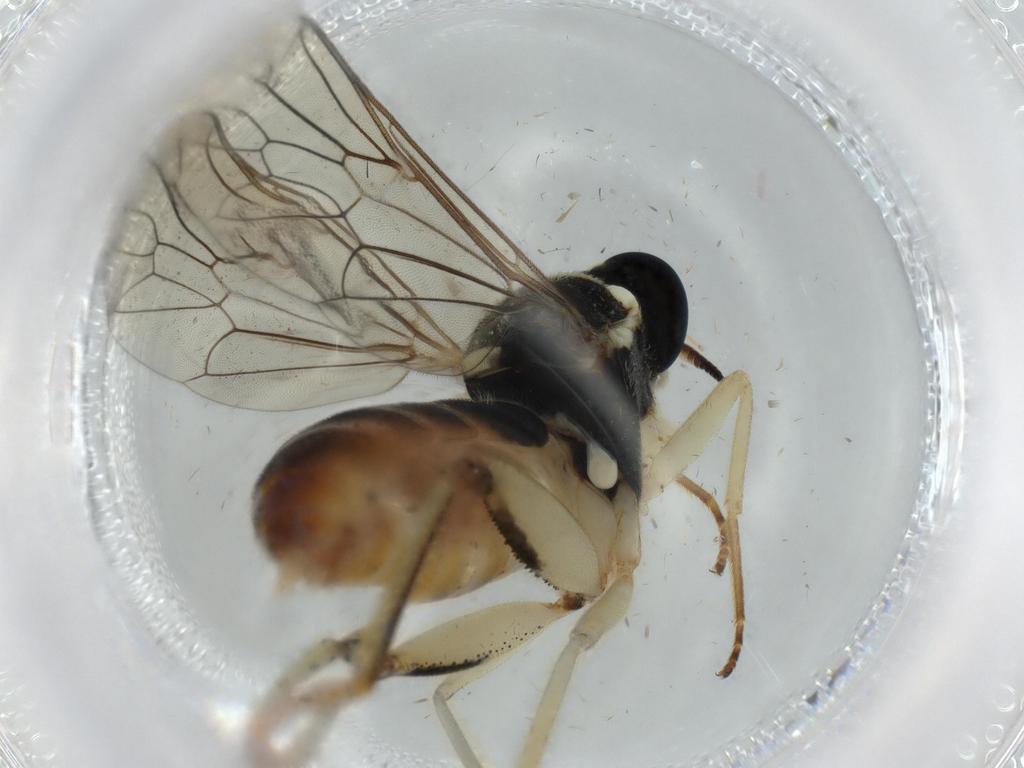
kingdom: Animalia
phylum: Arthropoda
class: Insecta
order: Diptera
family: Xylomyidae
